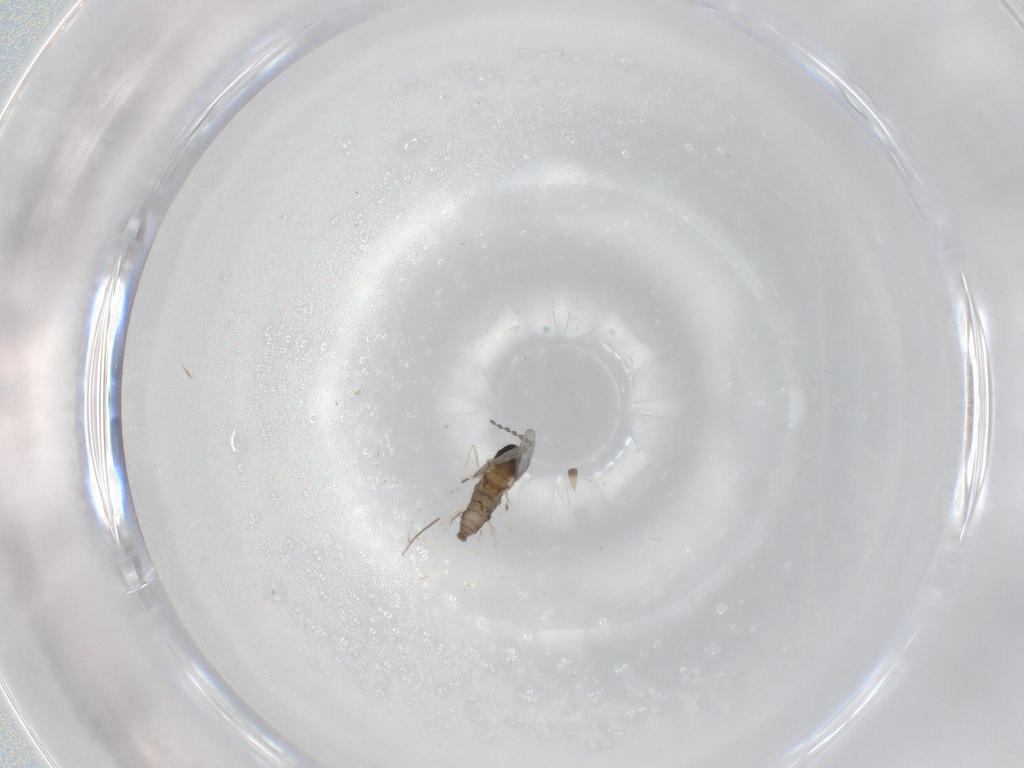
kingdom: Animalia
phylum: Arthropoda
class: Insecta
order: Diptera
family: Cecidomyiidae
